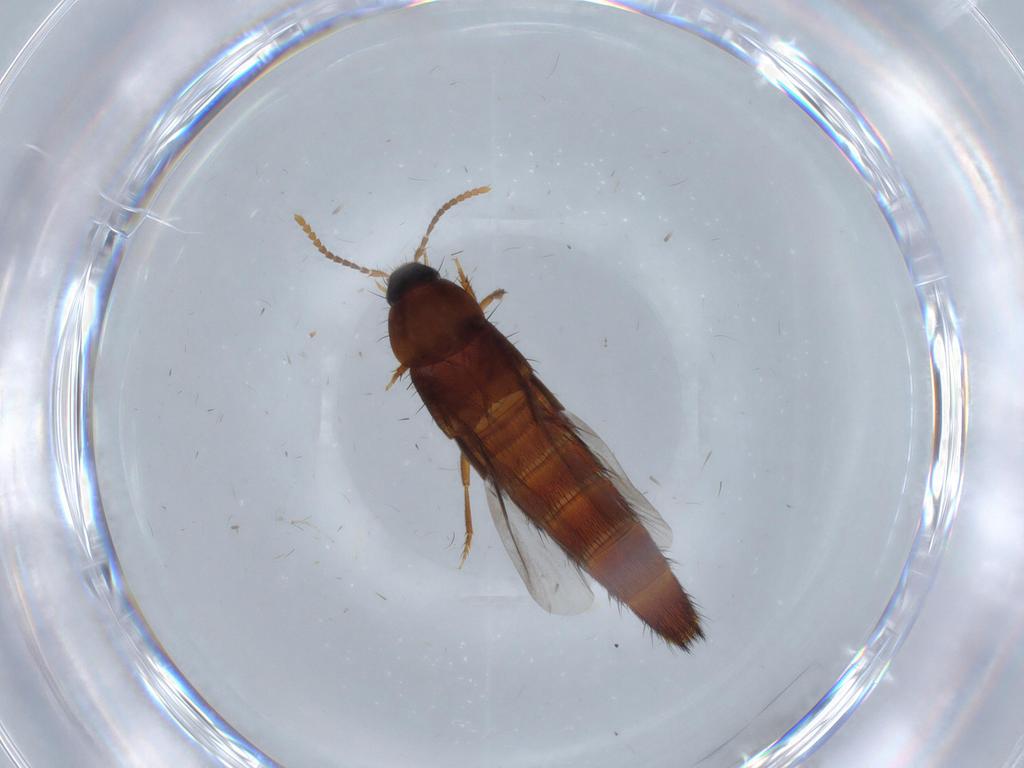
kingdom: Animalia
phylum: Arthropoda
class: Insecta
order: Coleoptera
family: Staphylinidae
